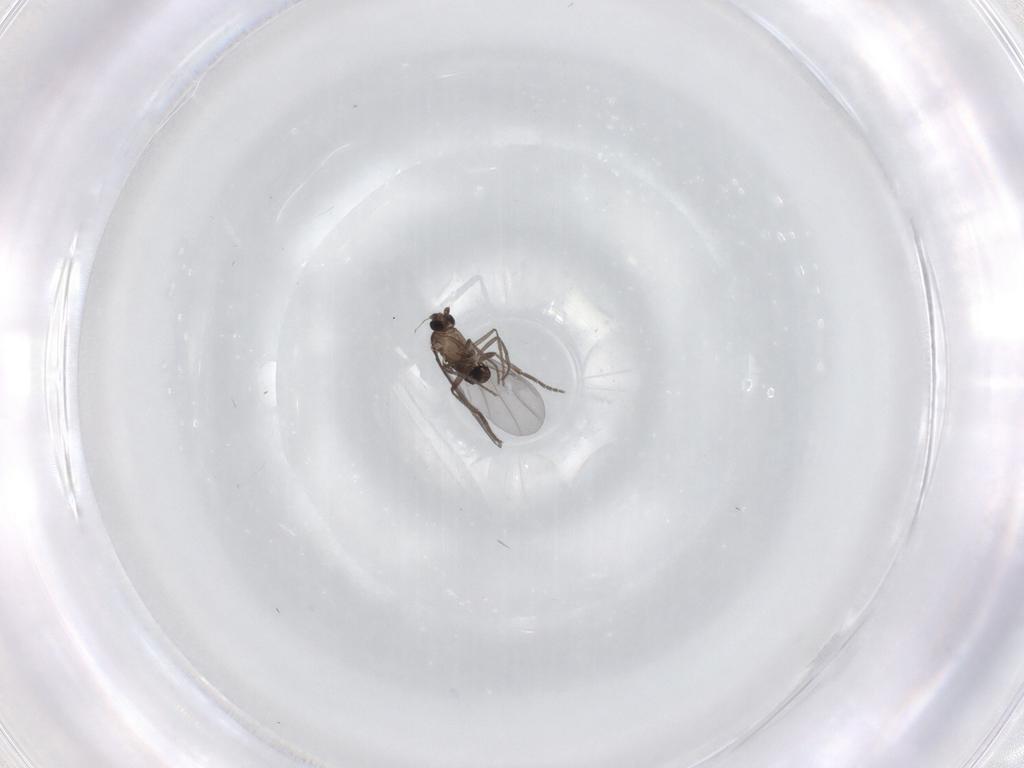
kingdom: Animalia
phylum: Arthropoda
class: Insecta
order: Diptera
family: Phoridae
